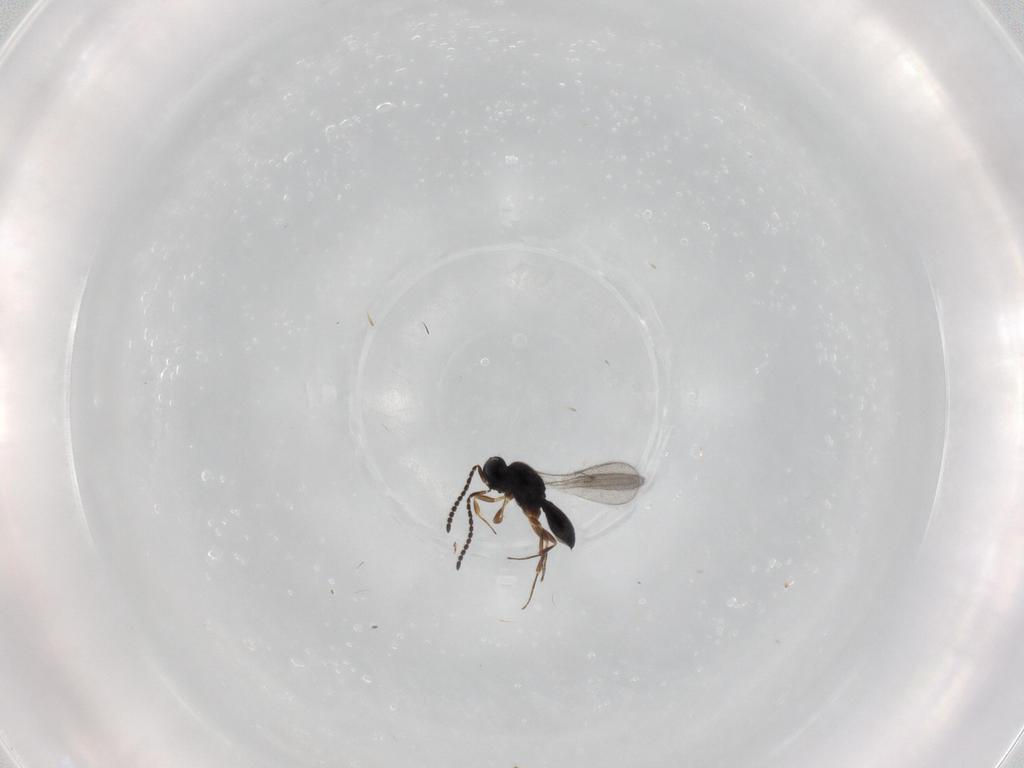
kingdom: Animalia
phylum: Arthropoda
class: Insecta
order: Hymenoptera
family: Scelionidae
